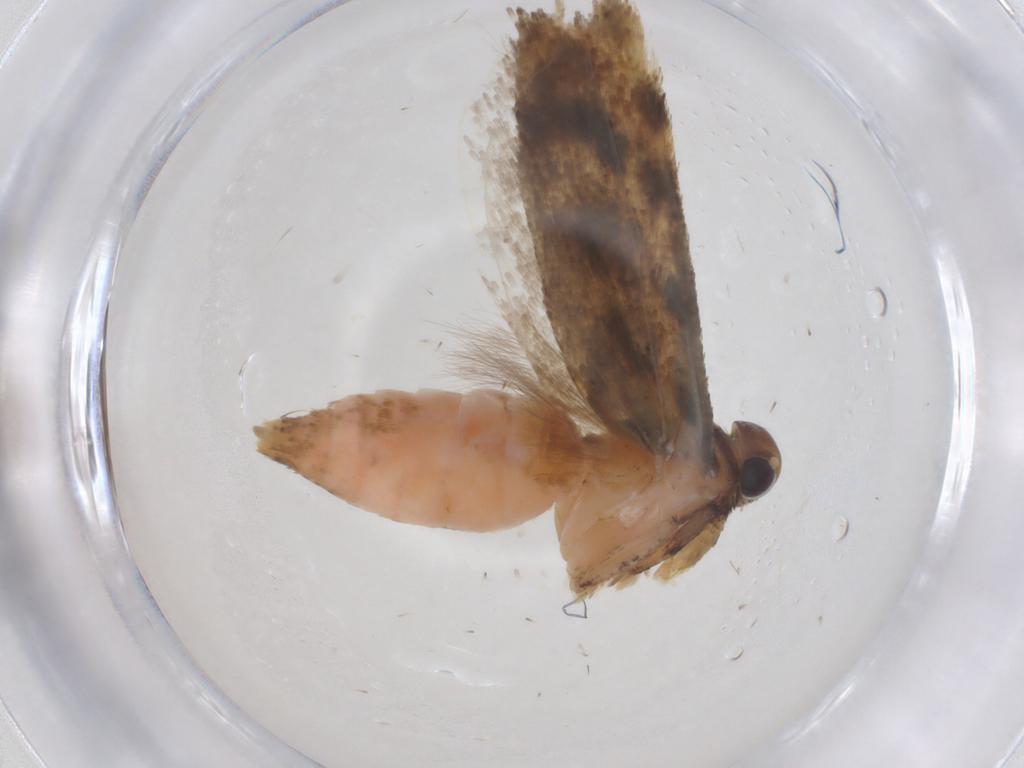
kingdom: Animalia
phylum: Arthropoda
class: Insecta
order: Lepidoptera
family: Gelechiidae
